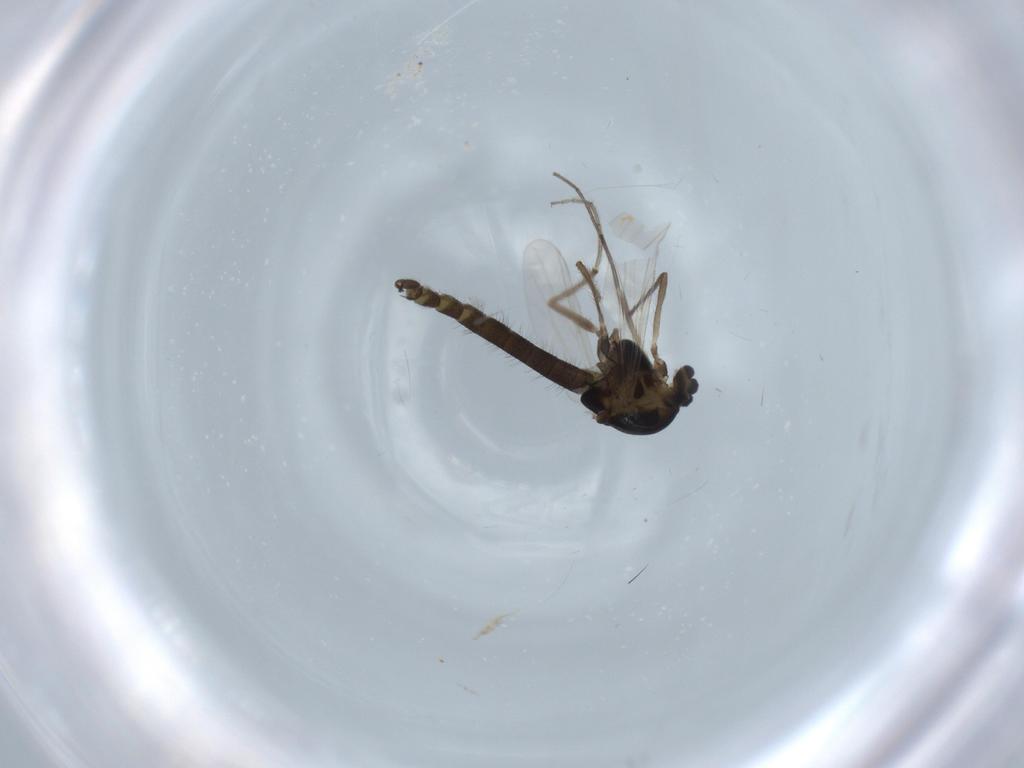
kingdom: Animalia
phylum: Arthropoda
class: Insecta
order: Diptera
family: Chironomidae
